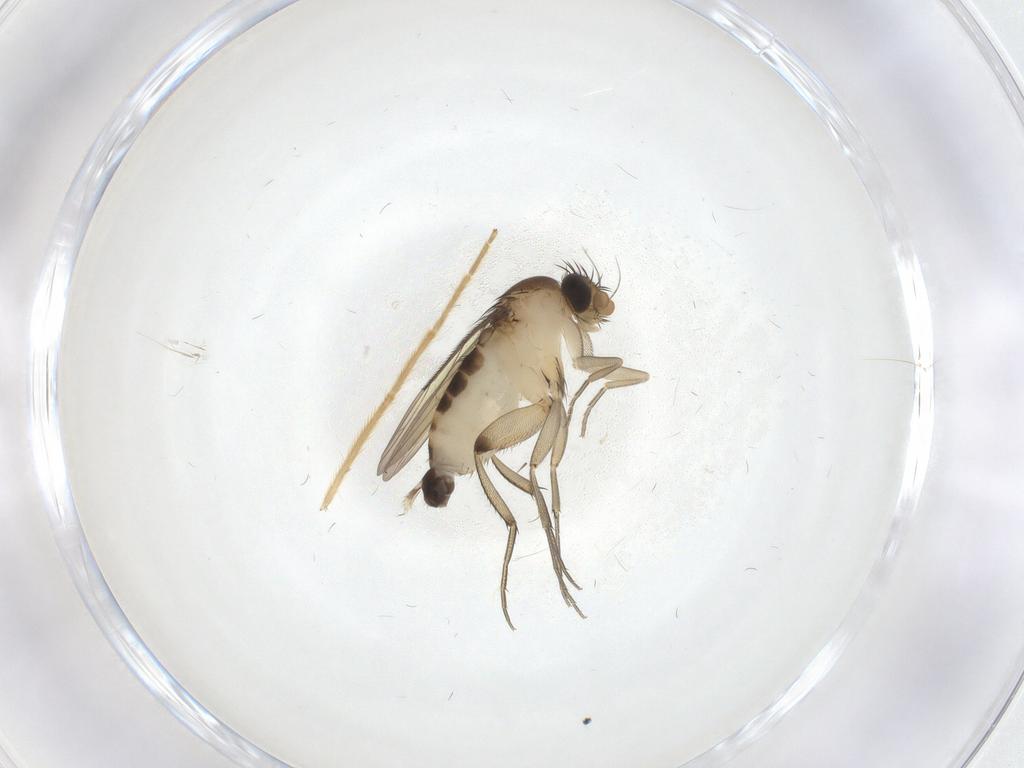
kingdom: Animalia
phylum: Arthropoda
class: Insecta
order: Diptera
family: Phoridae
